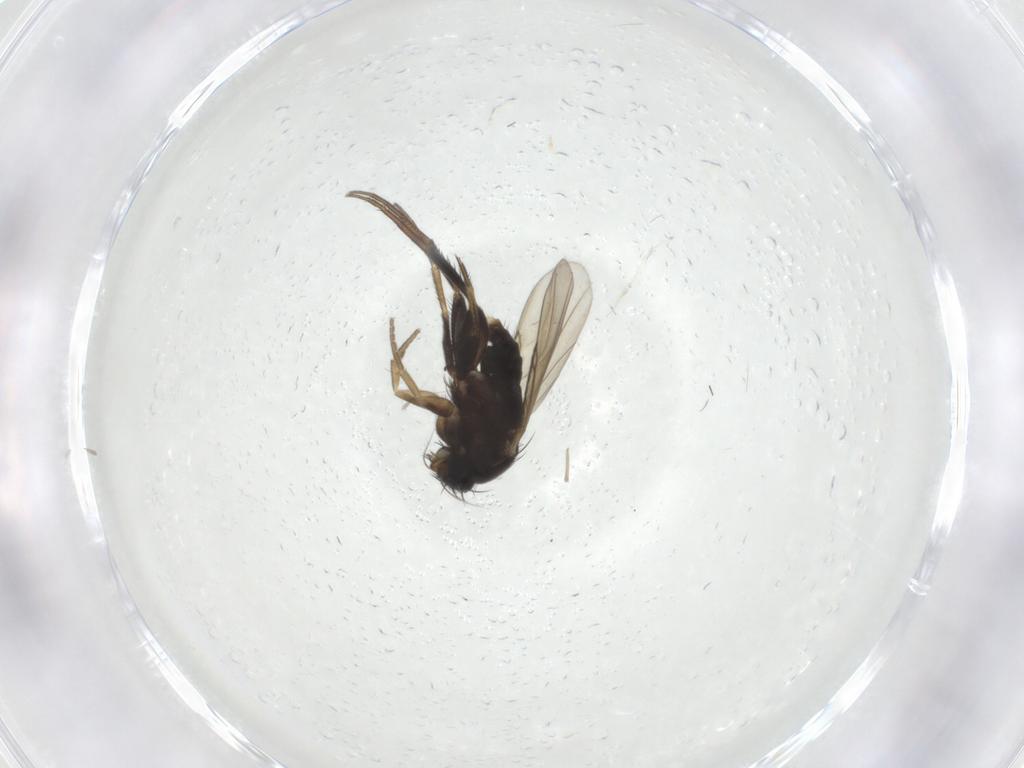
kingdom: Animalia
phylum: Arthropoda
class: Insecta
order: Diptera
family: Phoridae
